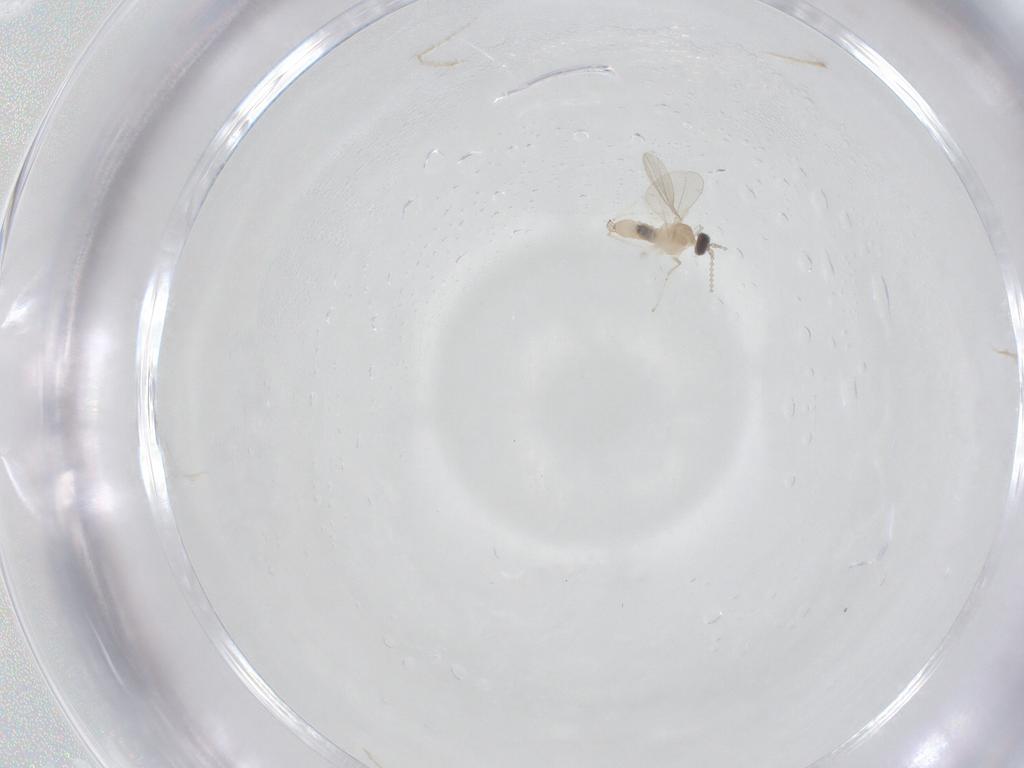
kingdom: Animalia
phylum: Arthropoda
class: Insecta
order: Diptera
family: Cecidomyiidae
